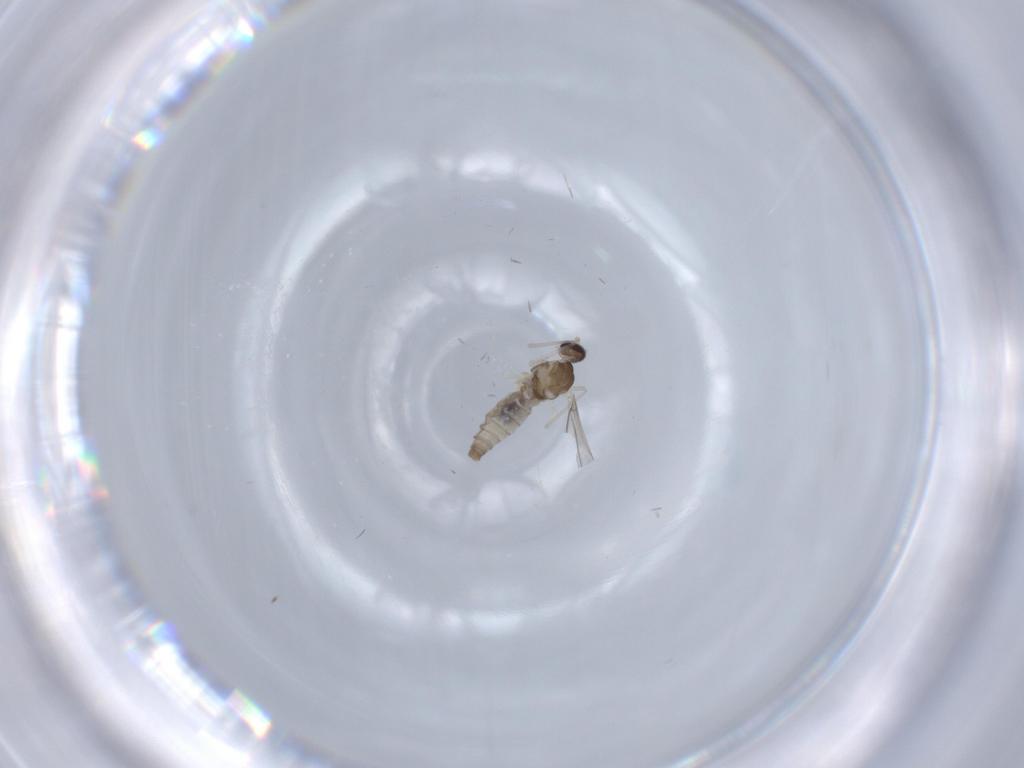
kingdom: Animalia
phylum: Arthropoda
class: Insecta
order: Diptera
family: Cecidomyiidae
